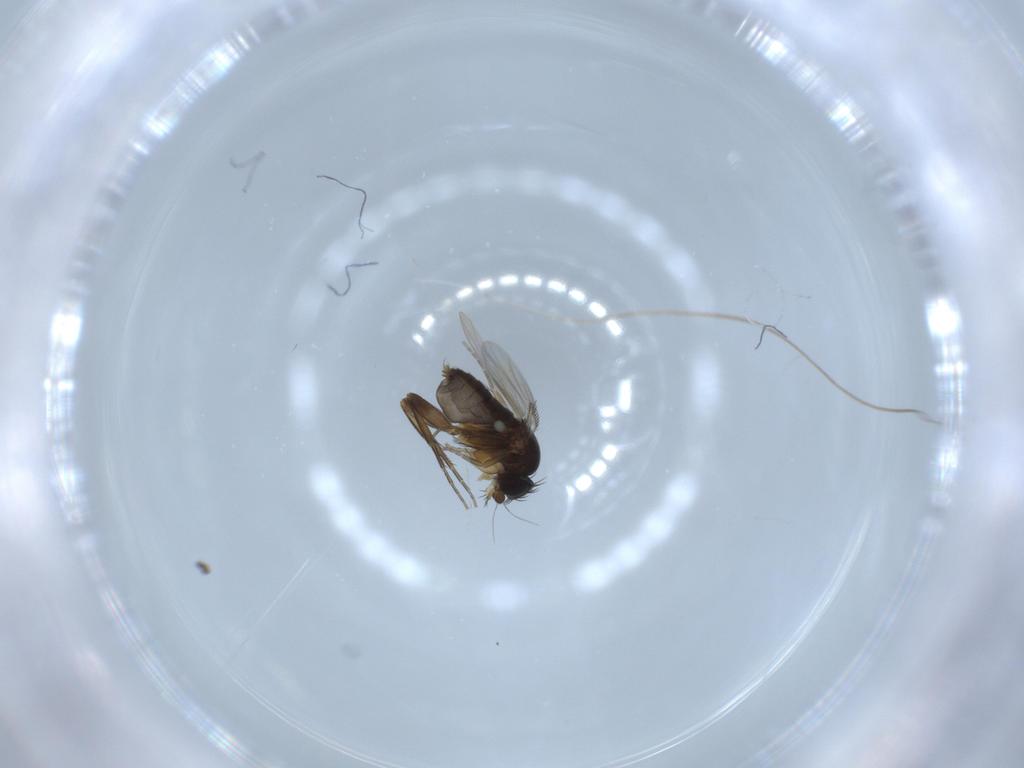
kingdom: Animalia
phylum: Arthropoda
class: Insecta
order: Diptera
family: Phoridae
